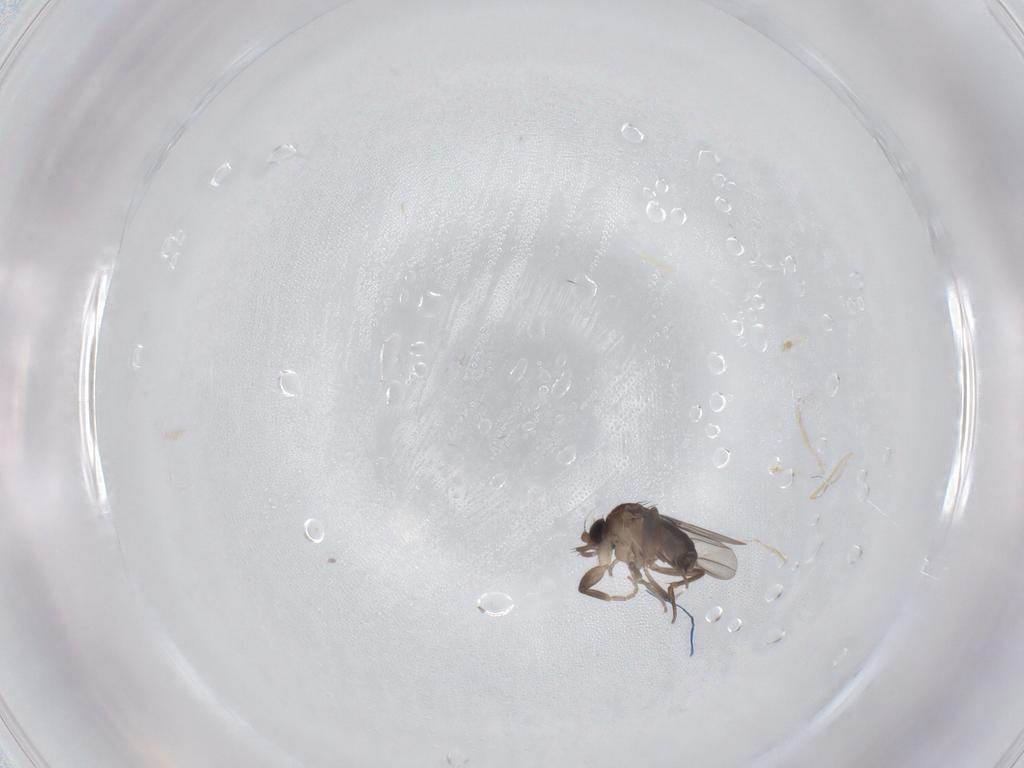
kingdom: Animalia
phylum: Arthropoda
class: Insecta
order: Diptera
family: Phoridae
